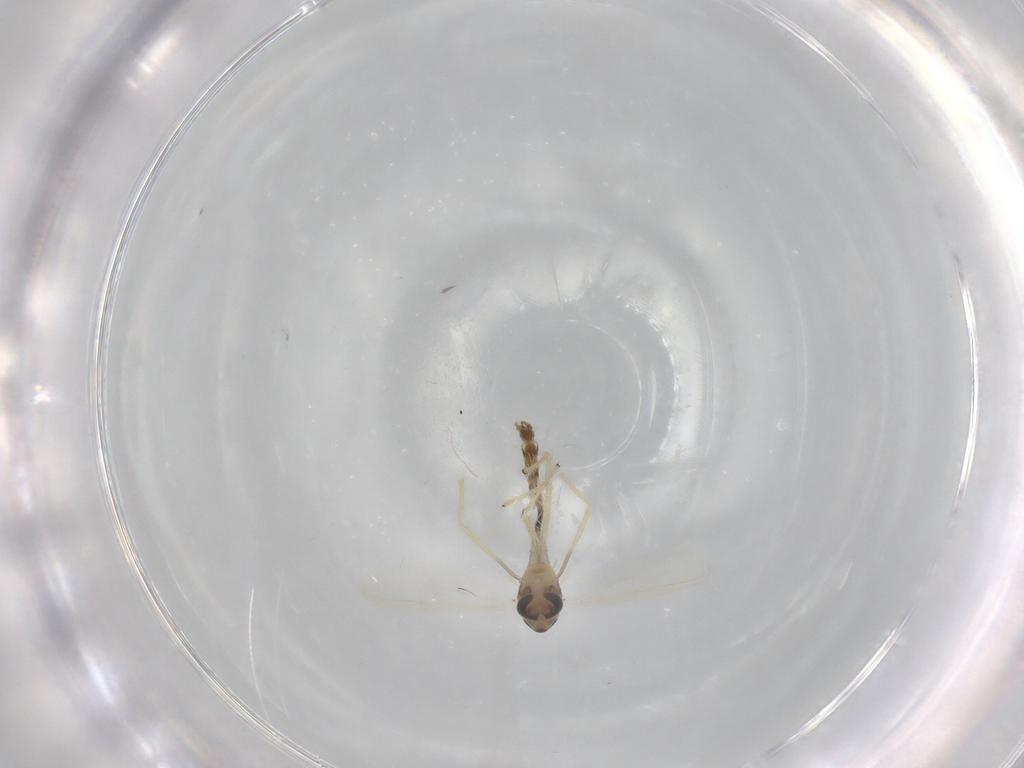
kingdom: Animalia
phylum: Arthropoda
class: Insecta
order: Diptera
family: Chironomidae
